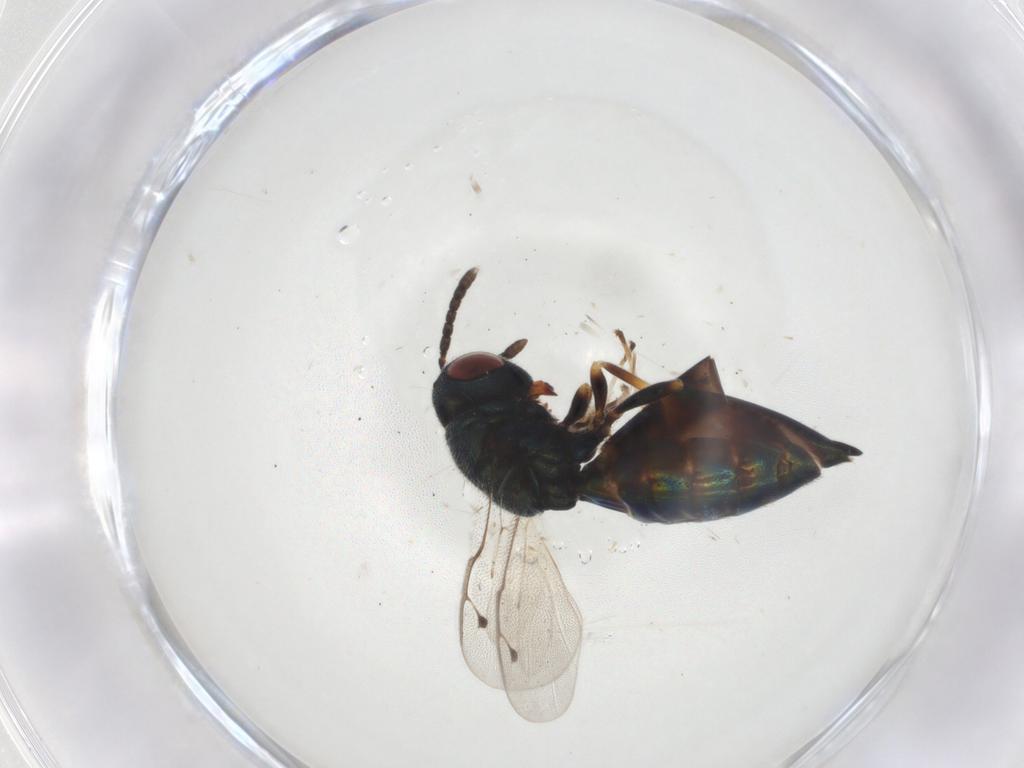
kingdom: Animalia
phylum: Arthropoda
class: Insecta
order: Hymenoptera
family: Pteromalidae
